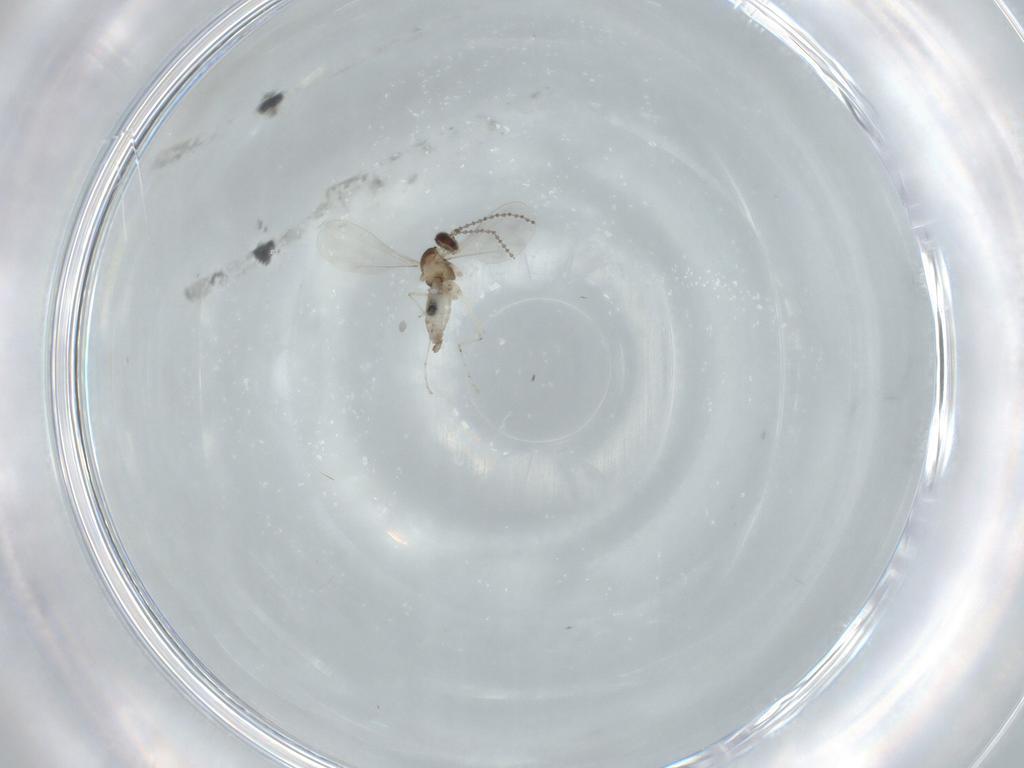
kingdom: Animalia
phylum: Arthropoda
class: Insecta
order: Diptera
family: Cecidomyiidae
